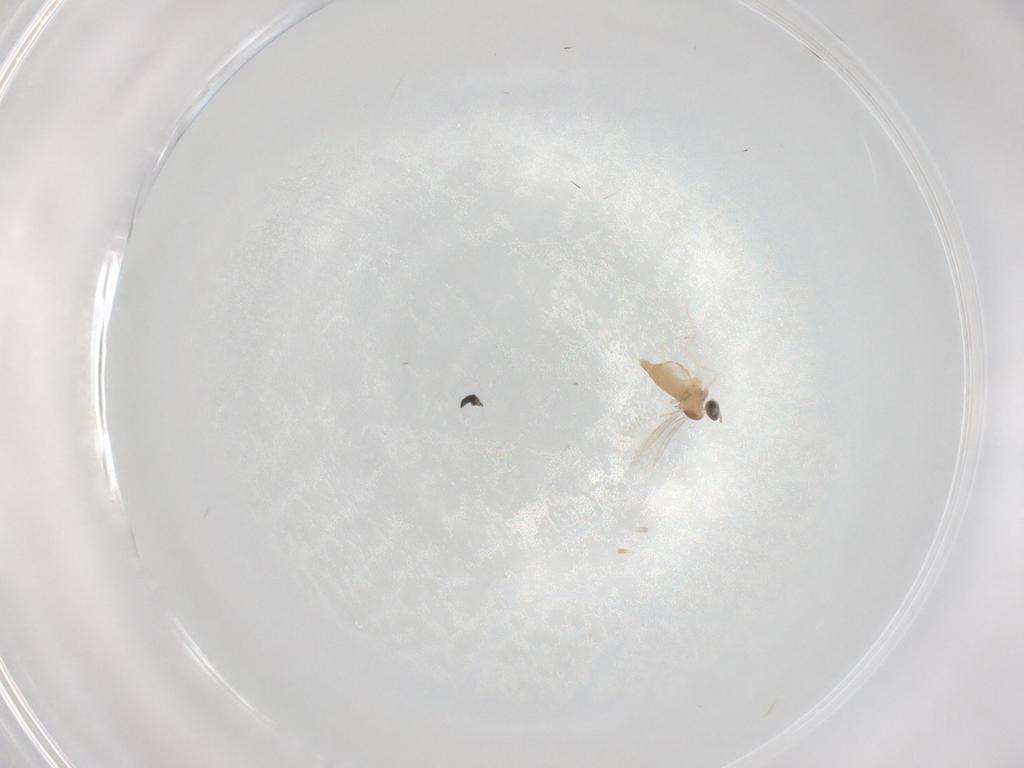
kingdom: Animalia
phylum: Arthropoda
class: Insecta
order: Diptera
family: Cecidomyiidae
